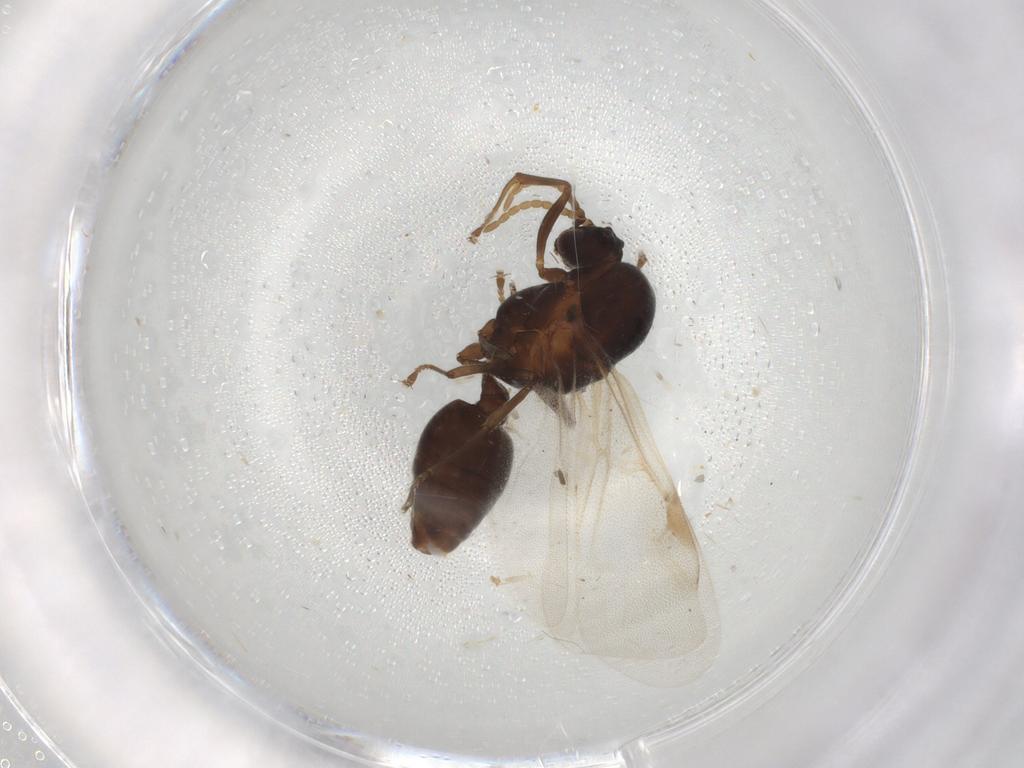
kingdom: Animalia
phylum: Arthropoda
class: Insecta
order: Hymenoptera
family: Formicidae
